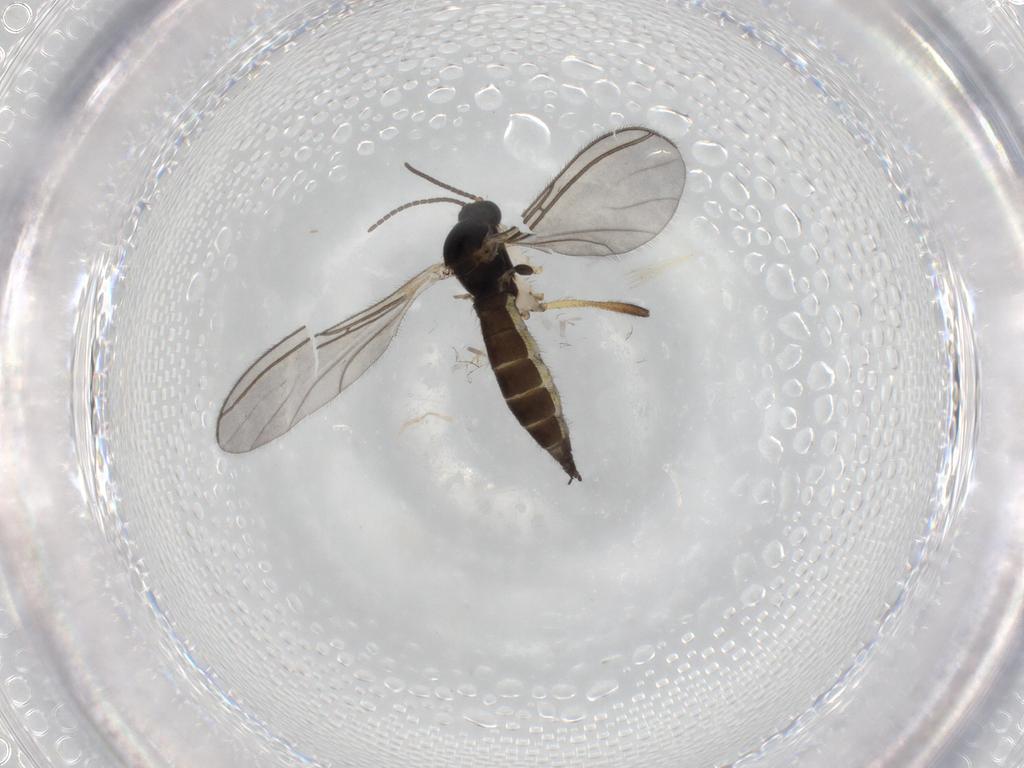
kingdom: Animalia
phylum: Arthropoda
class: Insecta
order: Diptera
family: Sciaridae
